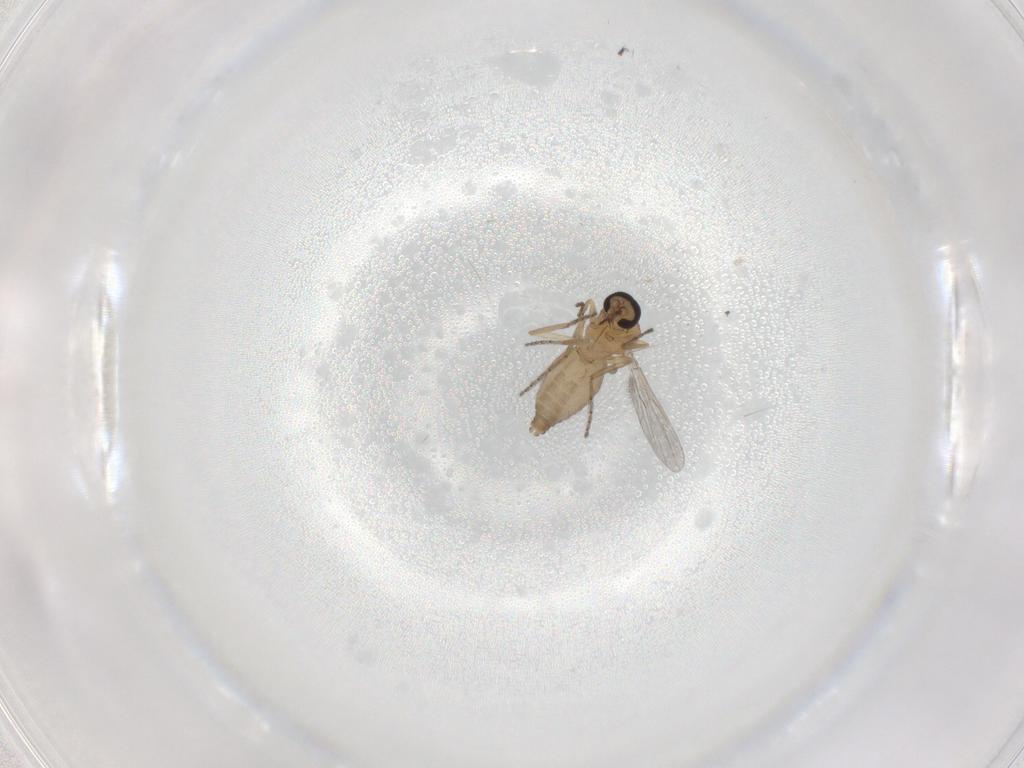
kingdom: Animalia
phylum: Arthropoda
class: Insecta
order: Diptera
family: Ceratopogonidae
